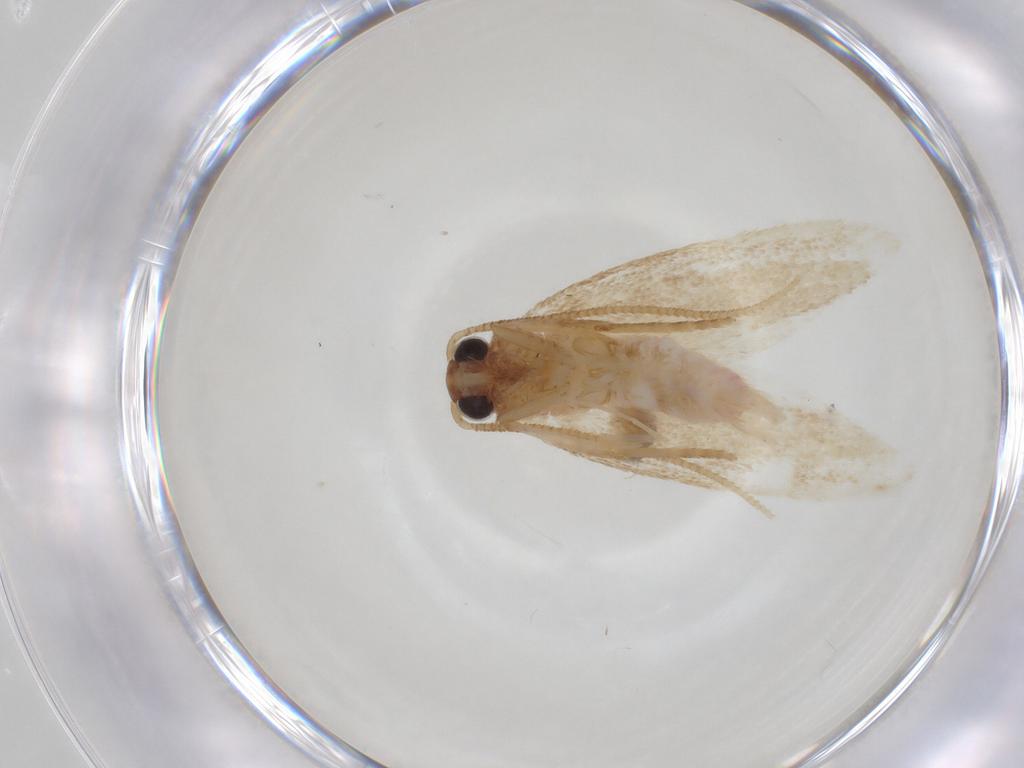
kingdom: Animalia
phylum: Arthropoda
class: Insecta
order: Lepidoptera
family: Autostichidae
